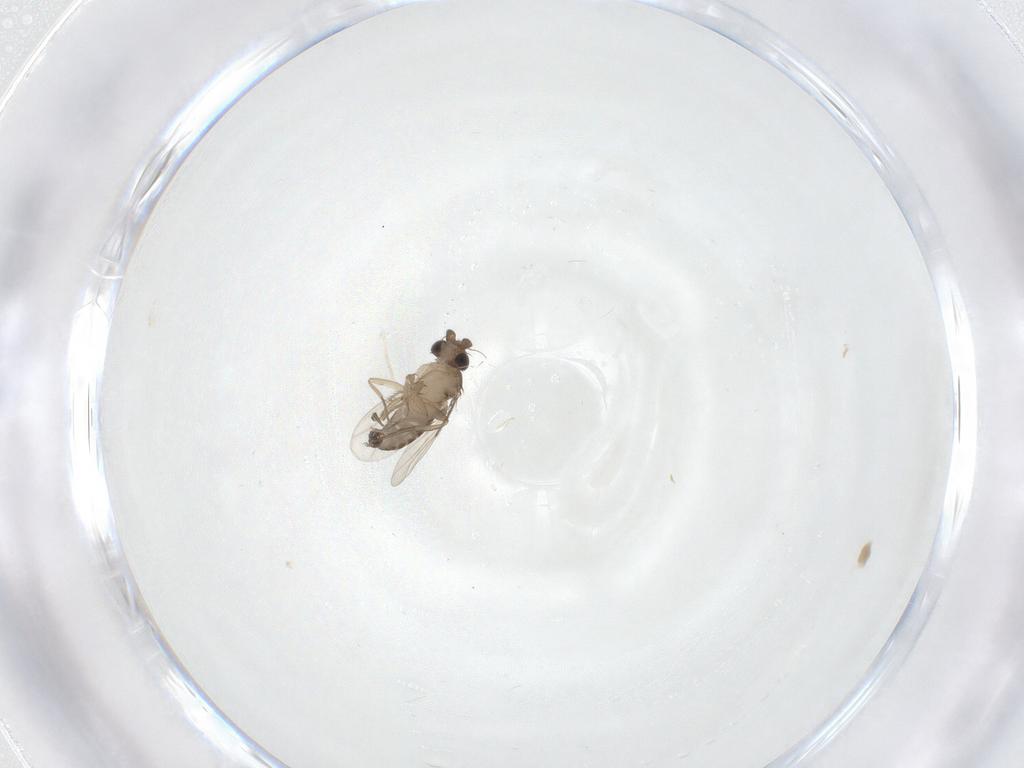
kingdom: Animalia
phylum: Arthropoda
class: Insecta
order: Diptera
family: Phoridae
